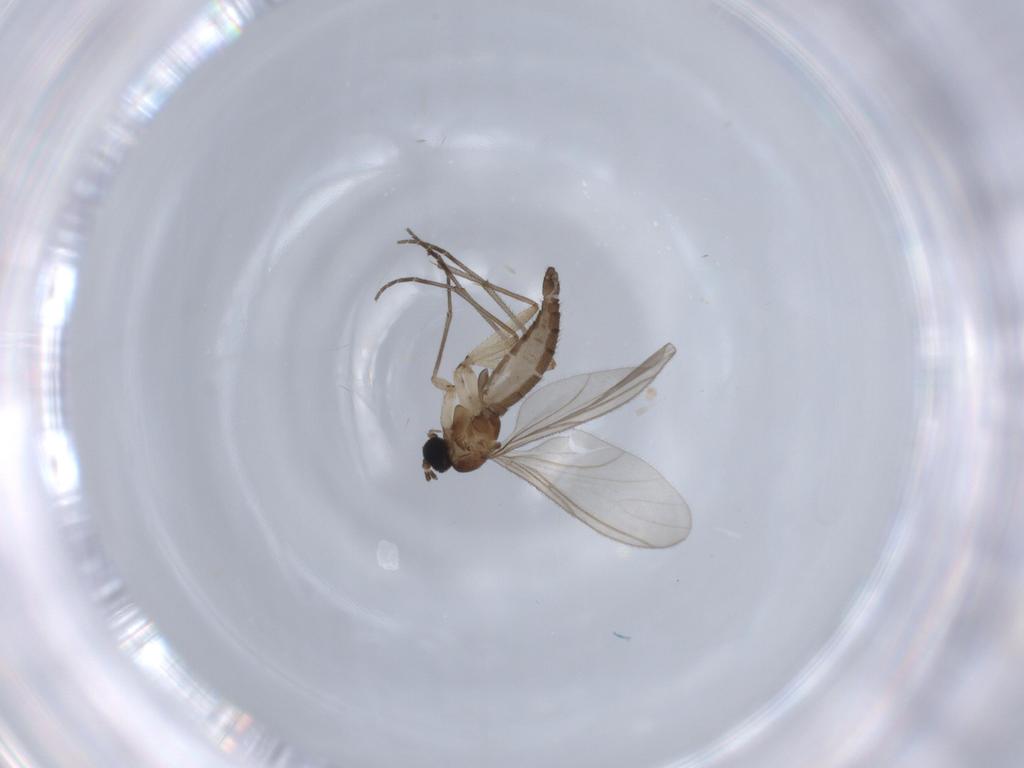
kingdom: Animalia
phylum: Arthropoda
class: Insecta
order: Diptera
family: Sciaridae
